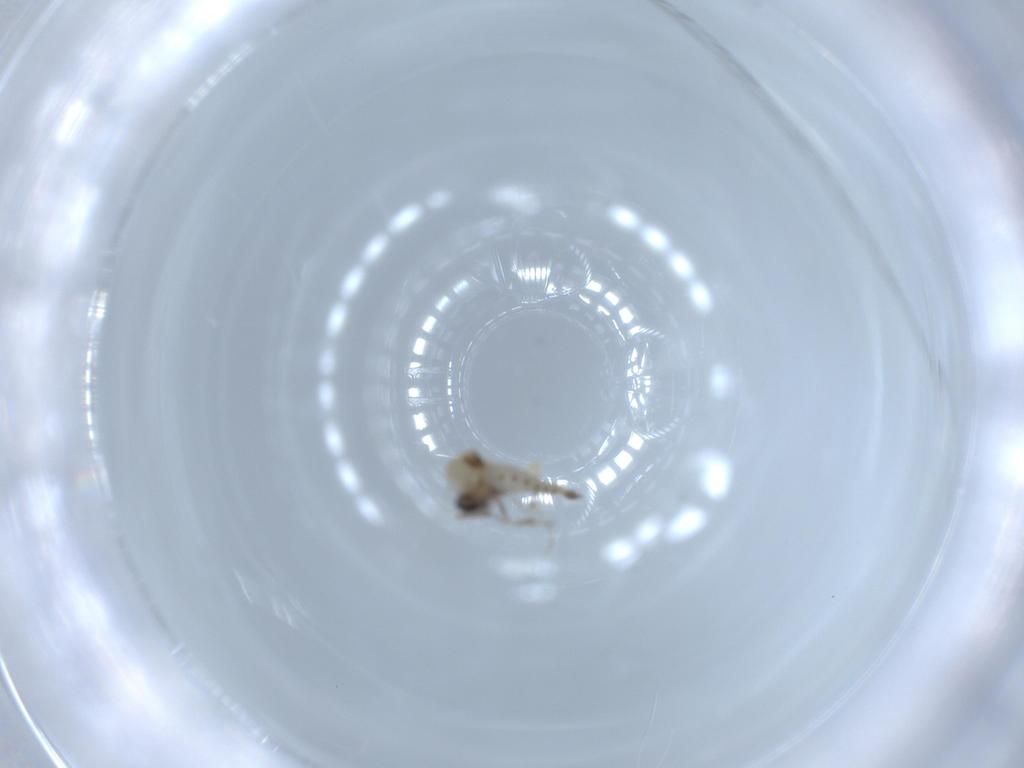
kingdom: Animalia
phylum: Arthropoda
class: Insecta
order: Diptera
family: Ceratopogonidae
